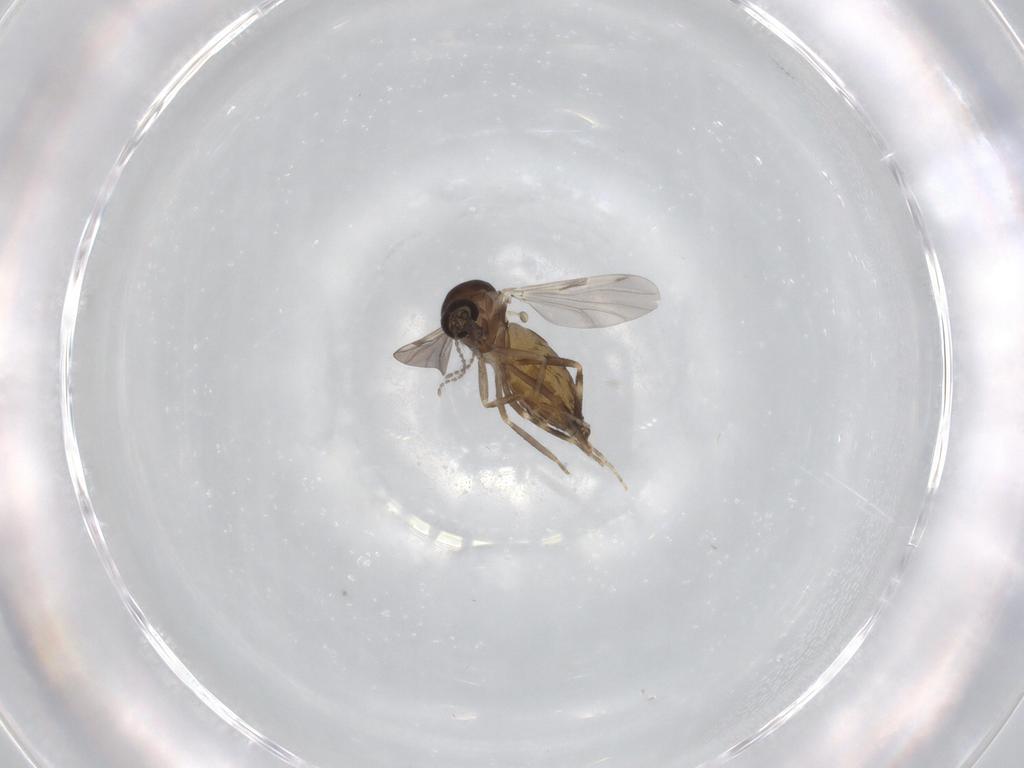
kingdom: Animalia
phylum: Arthropoda
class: Insecta
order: Diptera
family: Ceratopogonidae
